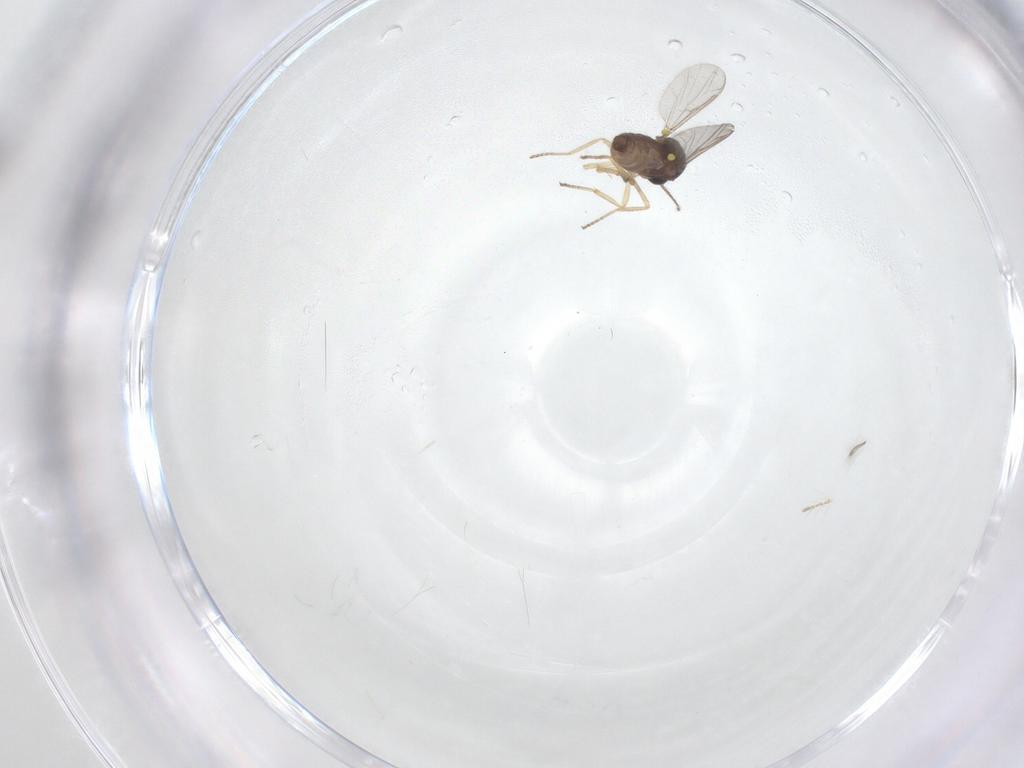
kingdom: Animalia
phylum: Arthropoda
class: Insecta
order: Diptera
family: Ceratopogonidae
